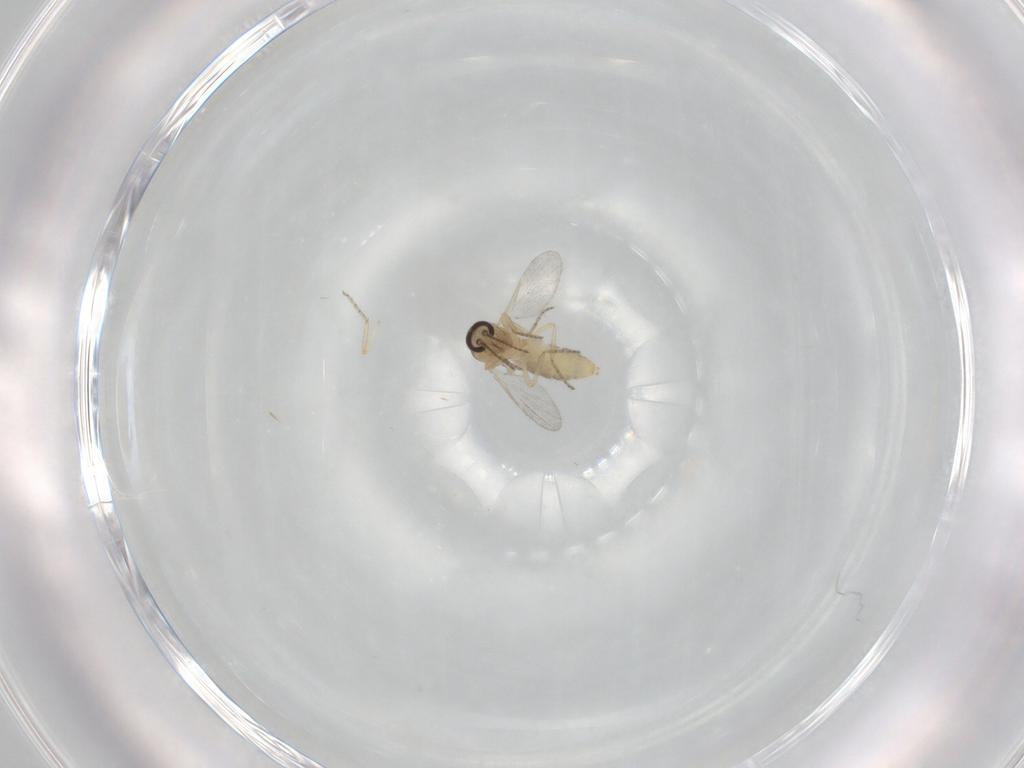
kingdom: Animalia
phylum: Arthropoda
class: Insecta
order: Diptera
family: Ceratopogonidae
